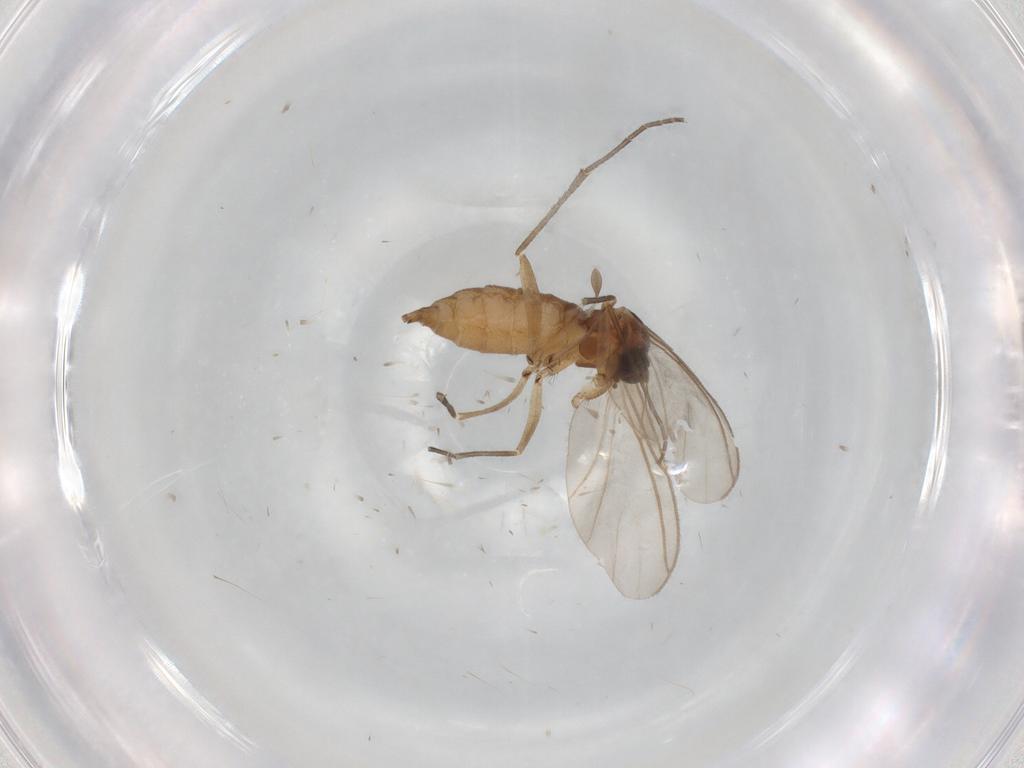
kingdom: Animalia
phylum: Arthropoda
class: Insecta
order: Diptera
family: Sciaridae
